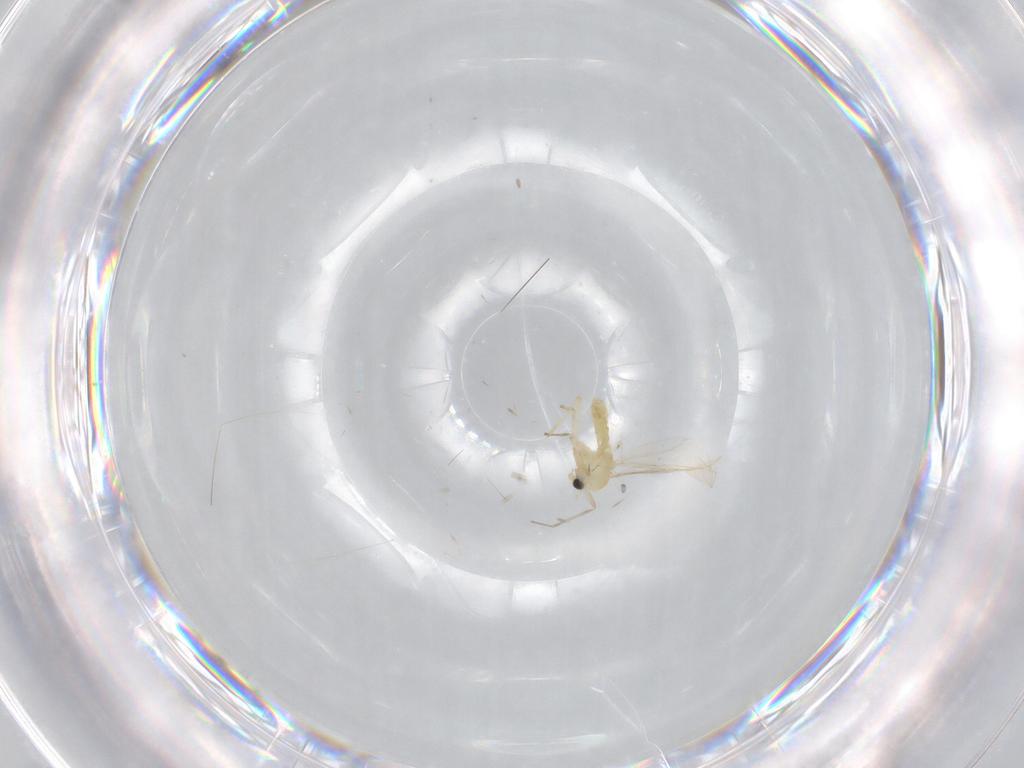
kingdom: Animalia
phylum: Arthropoda
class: Insecta
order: Diptera
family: Chironomidae
